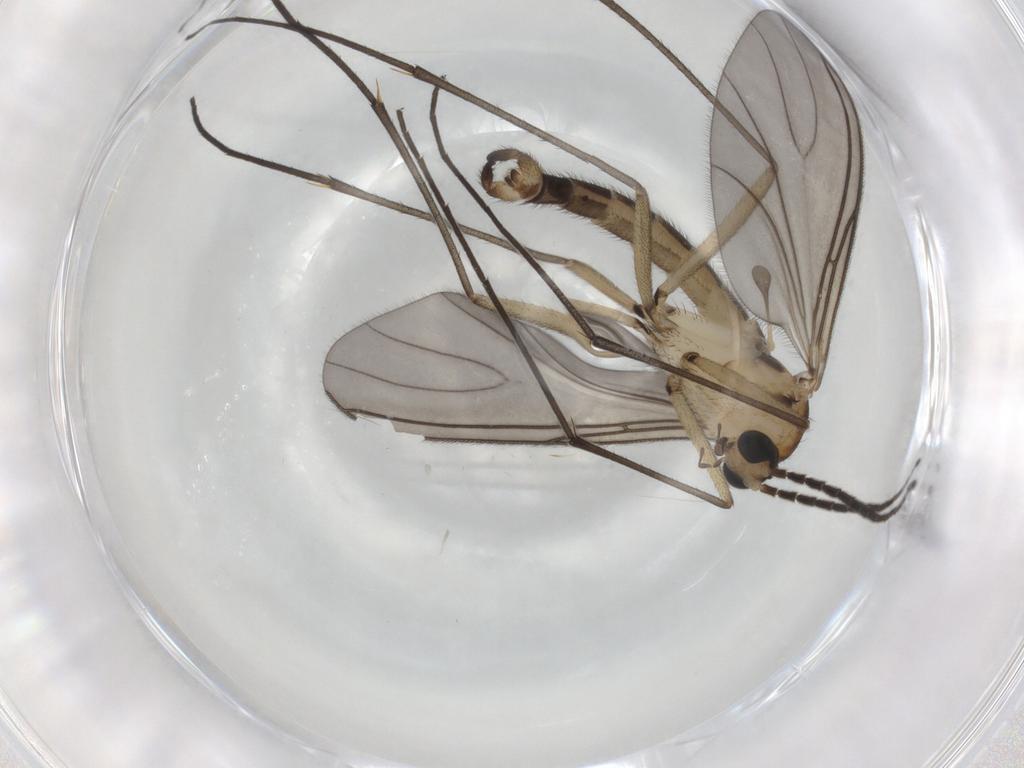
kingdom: Animalia
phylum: Arthropoda
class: Insecta
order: Diptera
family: Sciaridae
